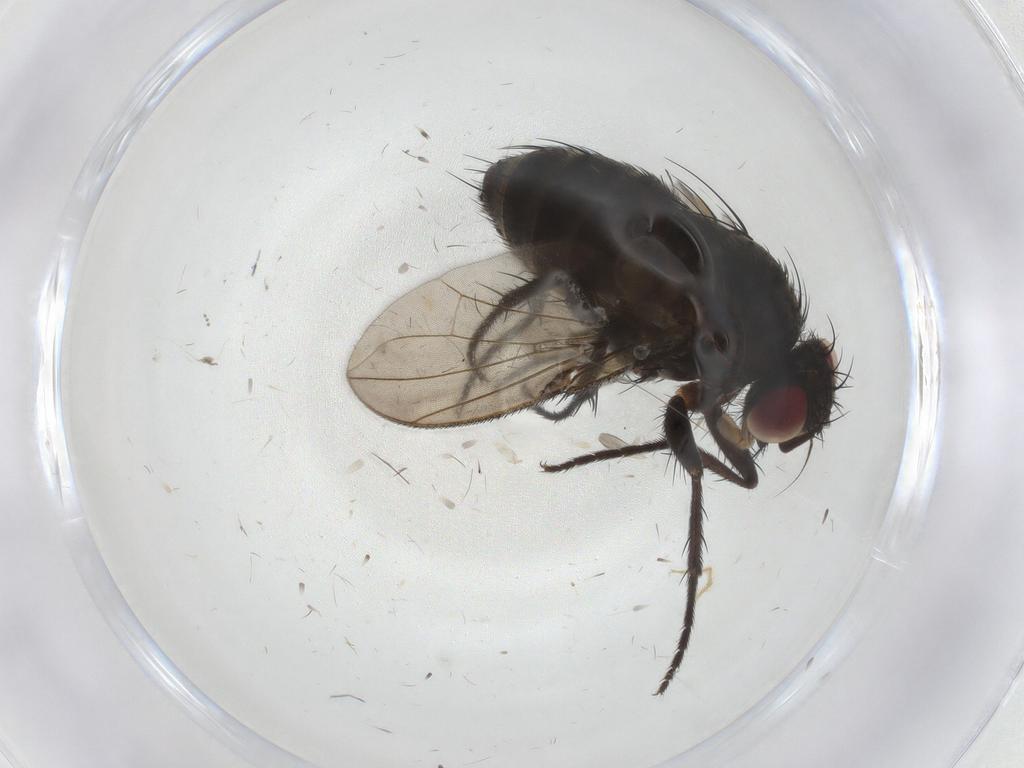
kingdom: Animalia
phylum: Arthropoda
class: Insecta
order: Diptera
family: Psychodidae
